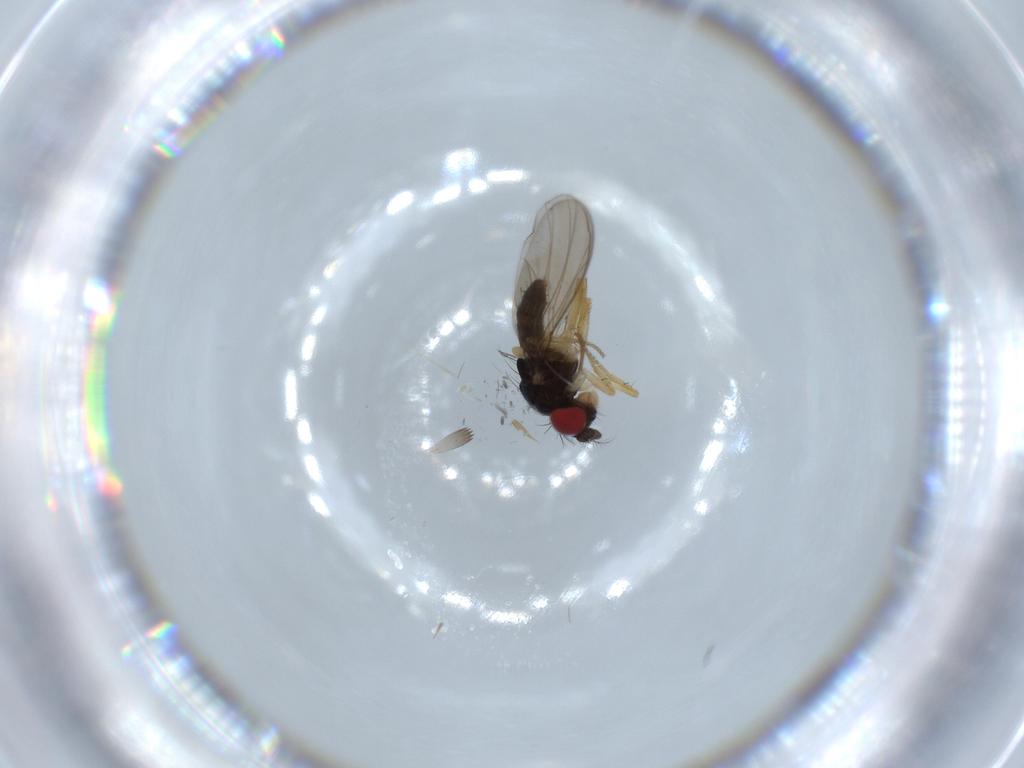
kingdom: Animalia
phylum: Arthropoda
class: Insecta
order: Diptera
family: Drosophilidae
